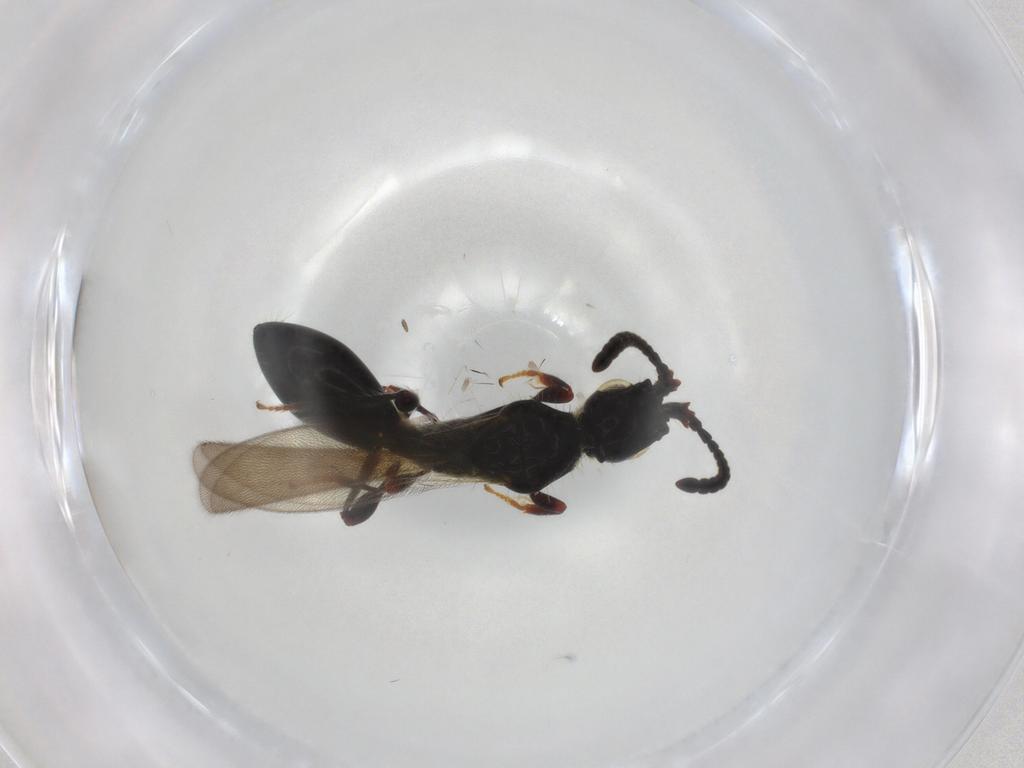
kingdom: Animalia
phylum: Arthropoda
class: Insecta
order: Hymenoptera
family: Diapriidae
